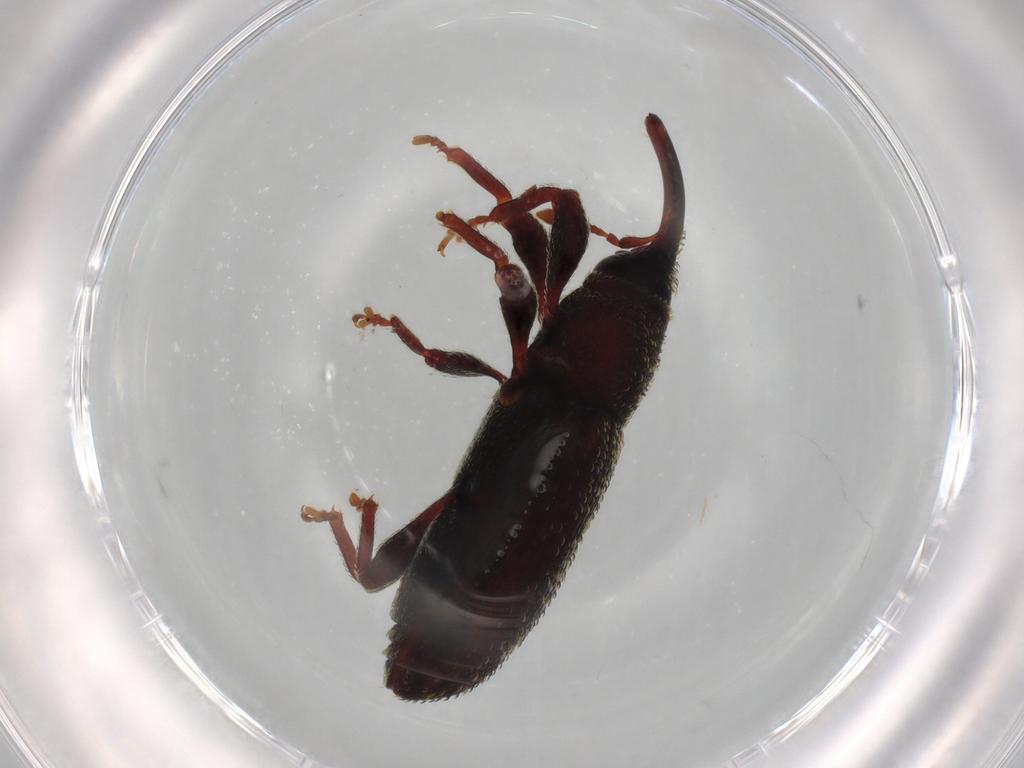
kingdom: Animalia
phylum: Arthropoda
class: Insecta
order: Coleoptera
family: Curculionidae
